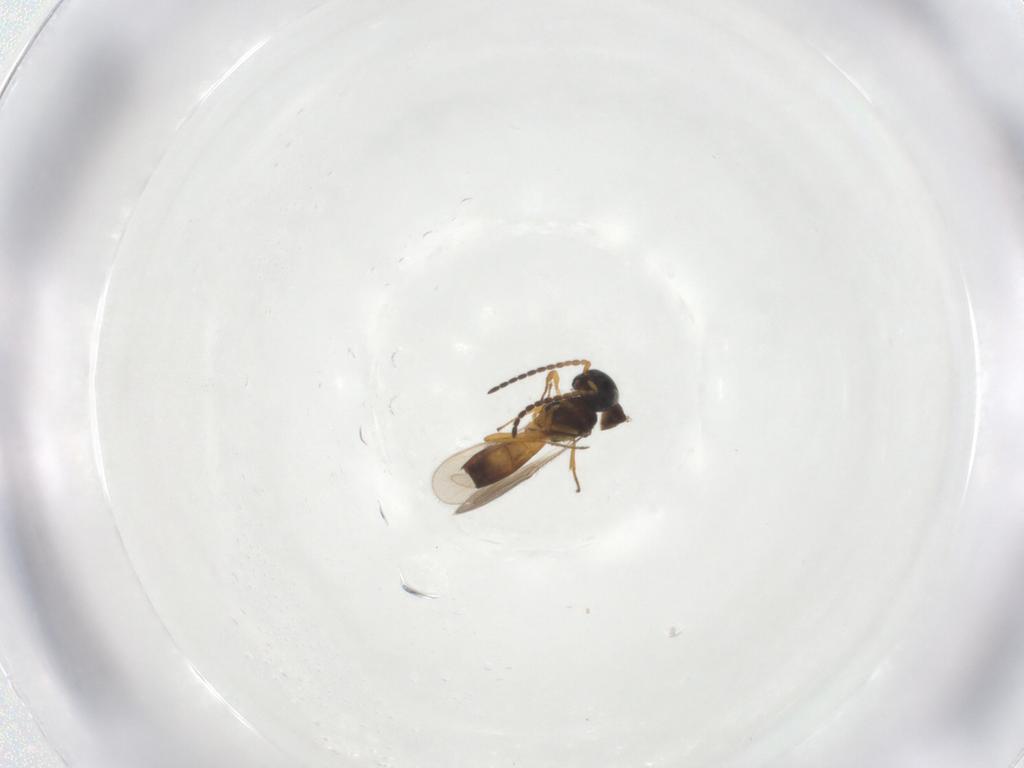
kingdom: Animalia
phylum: Arthropoda
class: Insecta
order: Hymenoptera
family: Scelionidae
